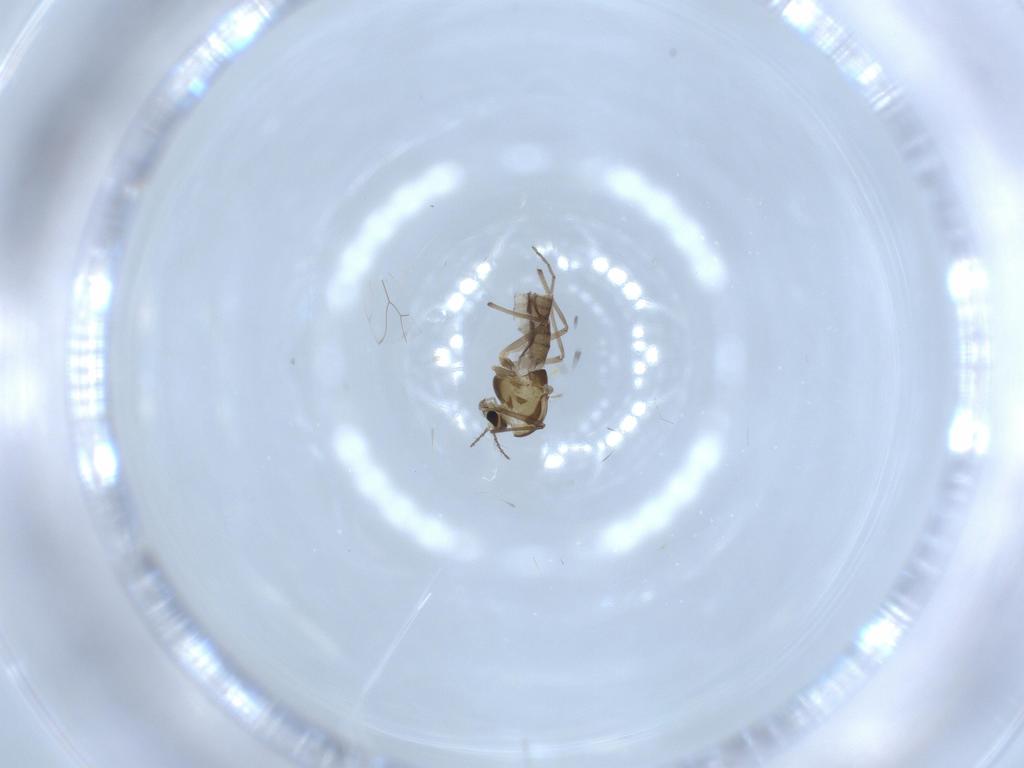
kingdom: Animalia
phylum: Arthropoda
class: Insecta
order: Diptera
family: Chironomidae
